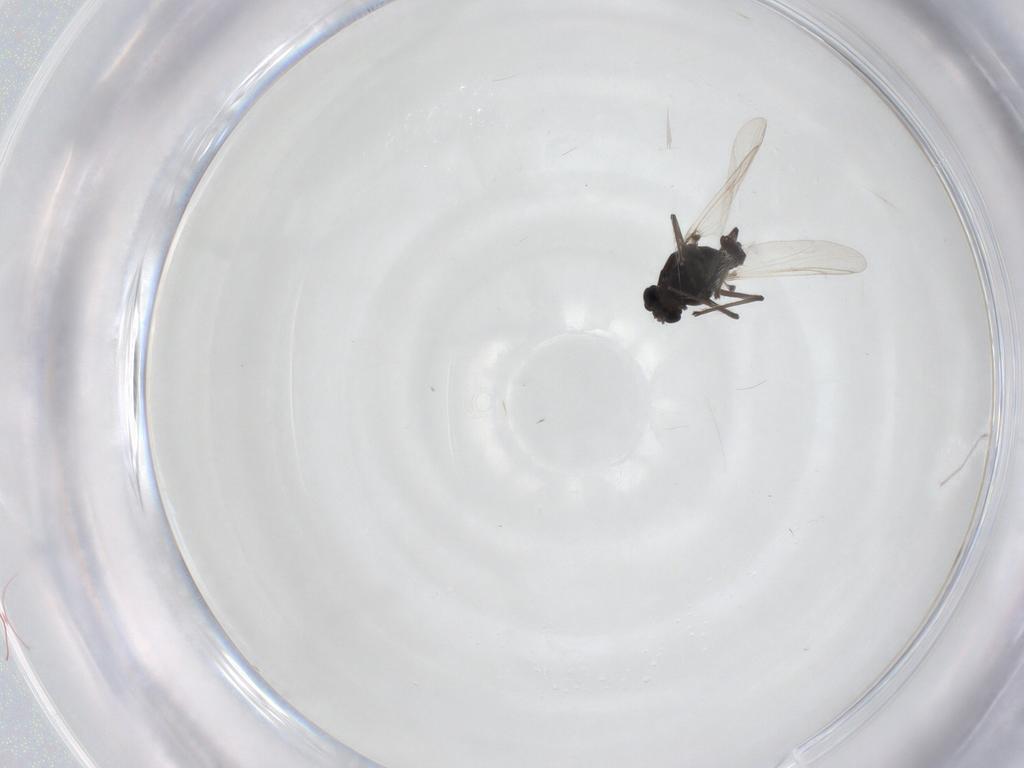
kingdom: Animalia
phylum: Arthropoda
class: Insecta
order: Diptera
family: Chironomidae
